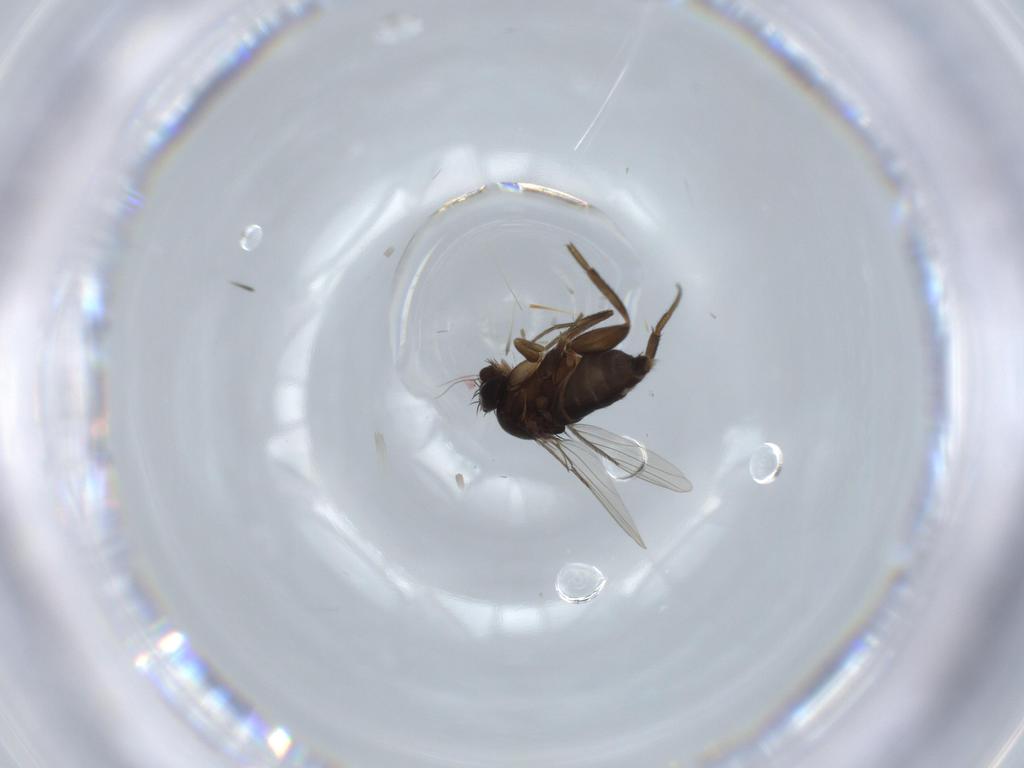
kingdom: Animalia
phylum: Arthropoda
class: Insecta
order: Diptera
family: Phoridae
